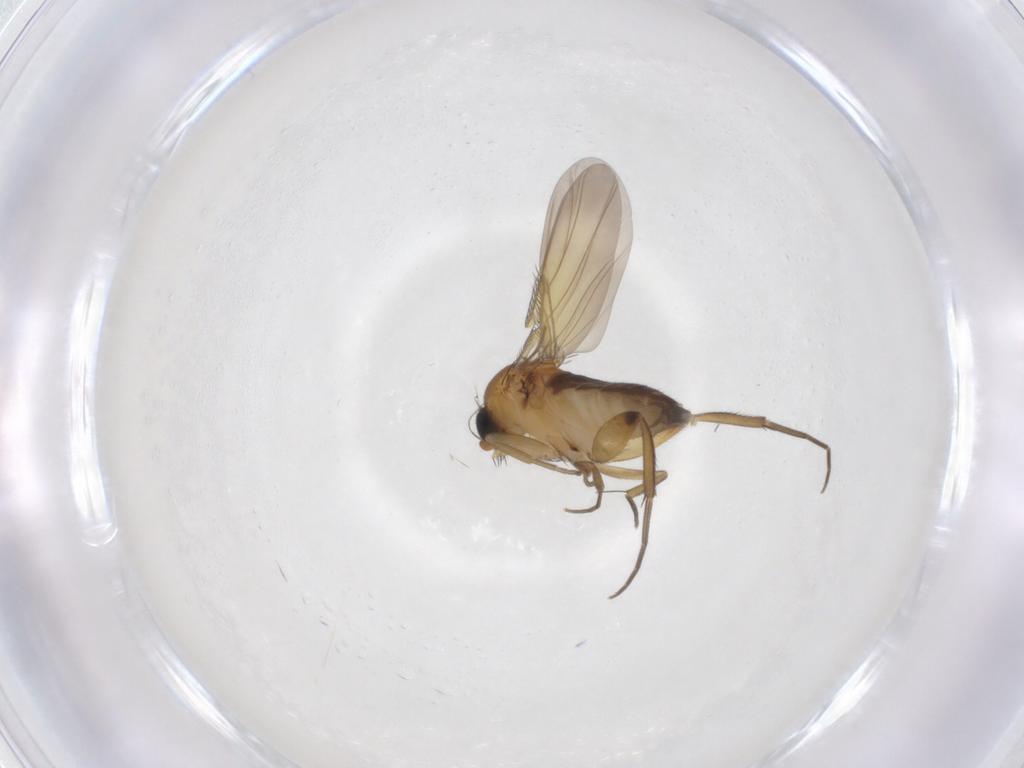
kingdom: Animalia
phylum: Arthropoda
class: Insecta
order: Diptera
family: Phoridae
